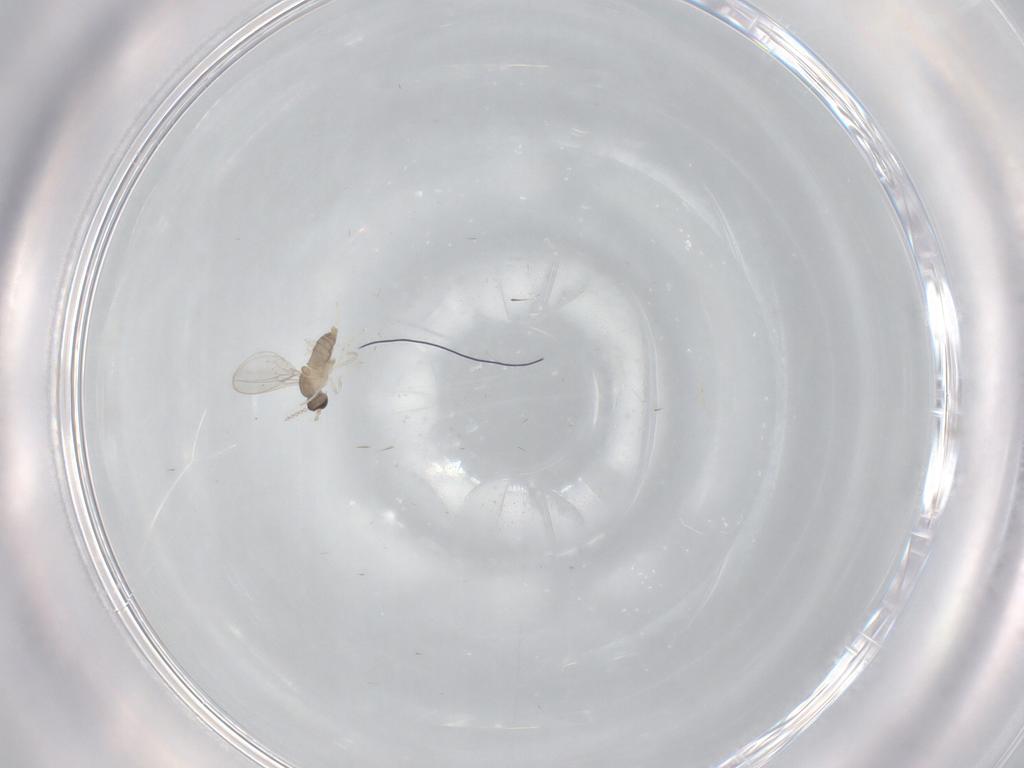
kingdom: Animalia
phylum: Arthropoda
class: Insecta
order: Diptera
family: Cecidomyiidae
